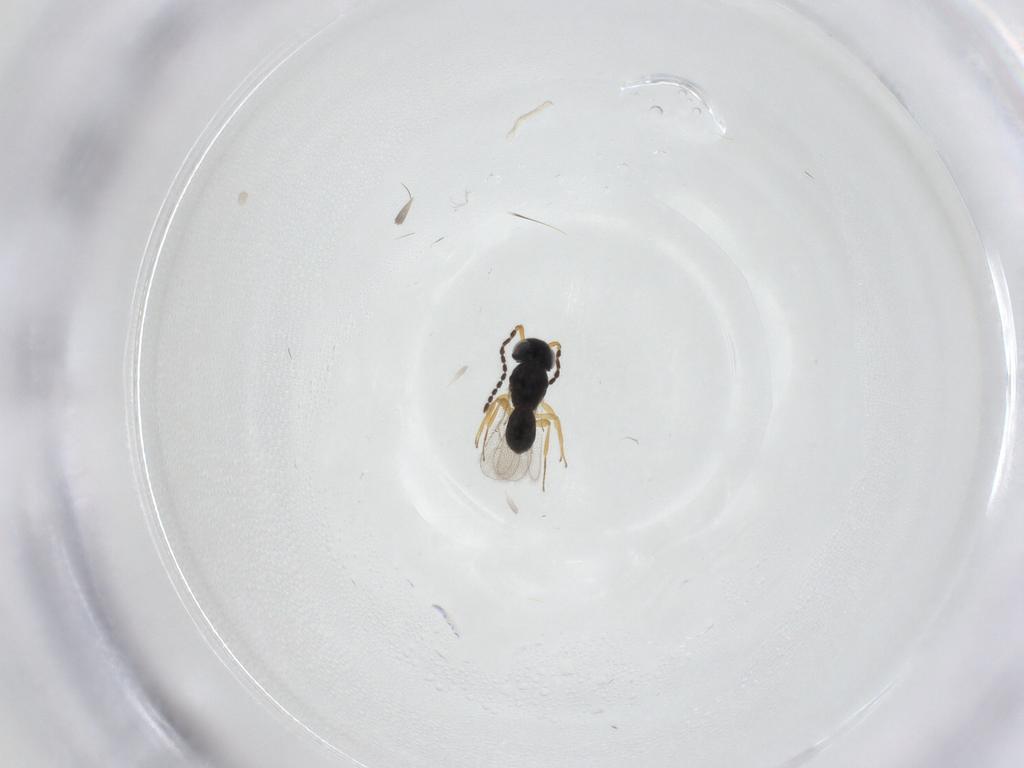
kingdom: Animalia
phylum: Arthropoda
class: Insecta
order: Hymenoptera
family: Scelionidae
